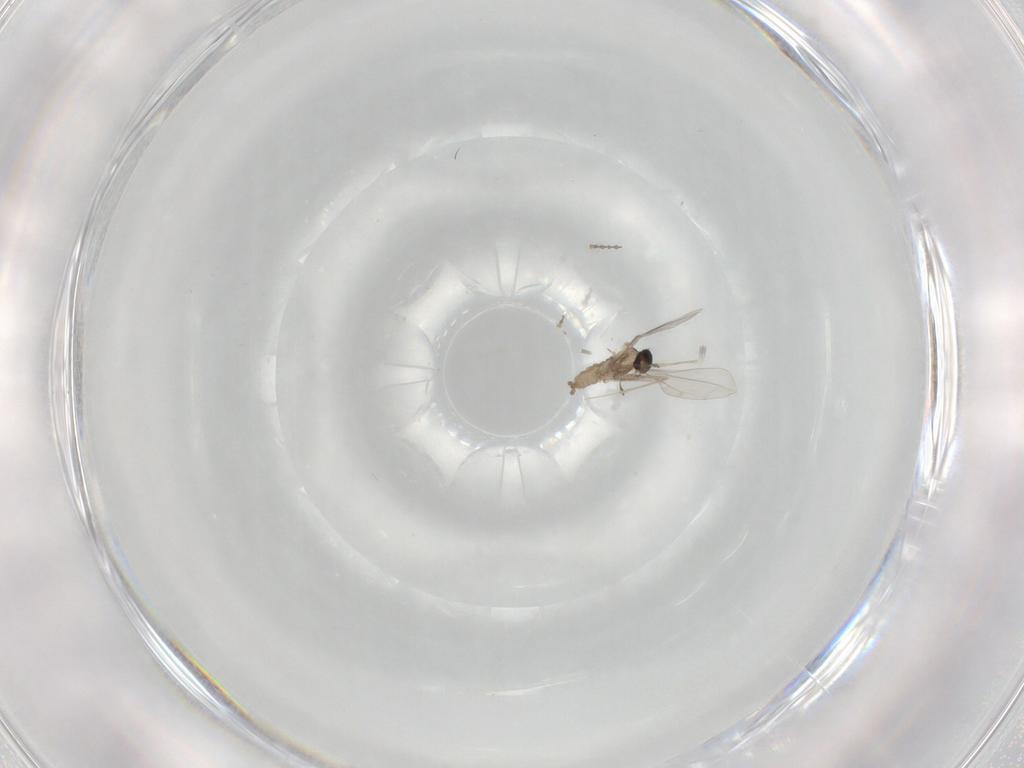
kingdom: Animalia
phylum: Arthropoda
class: Insecta
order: Diptera
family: Cecidomyiidae
